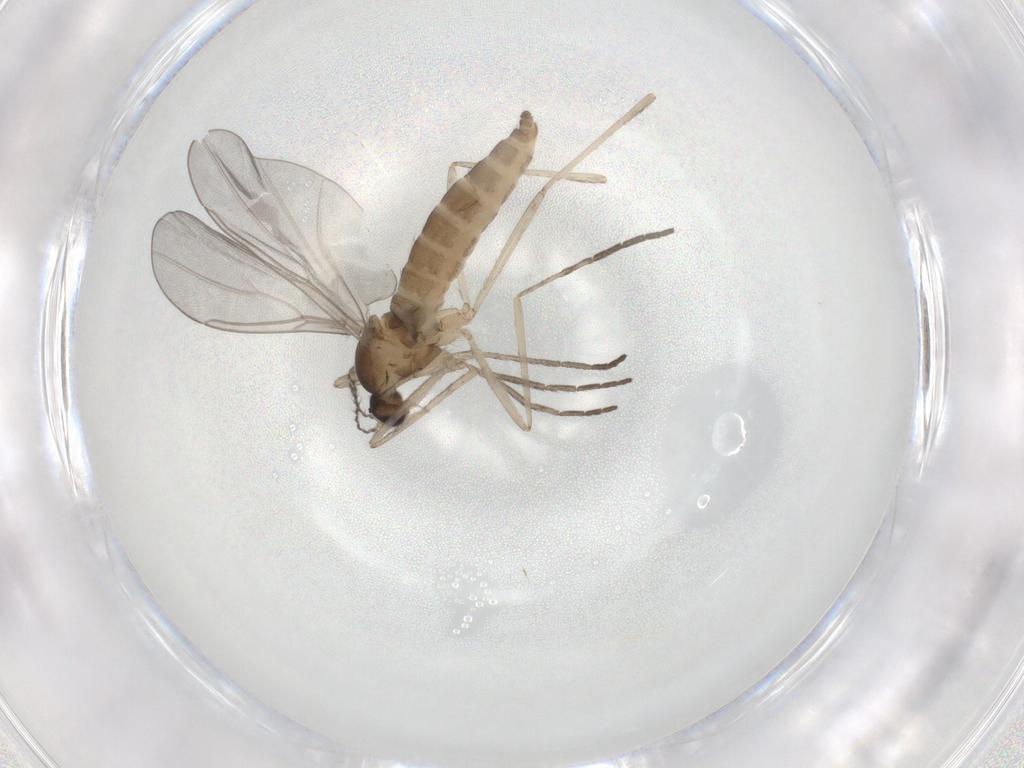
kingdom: Animalia
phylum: Arthropoda
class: Insecta
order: Diptera
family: Cecidomyiidae
